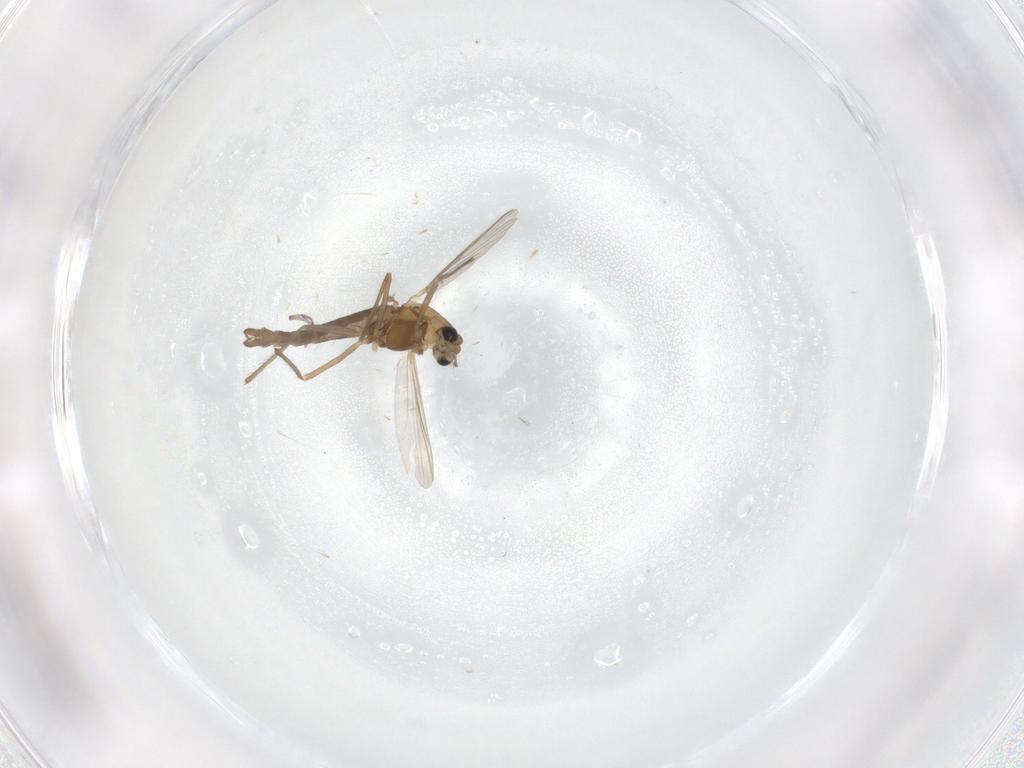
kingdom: Animalia
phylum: Arthropoda
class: Insecta
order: Diptera
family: Chironomidae
